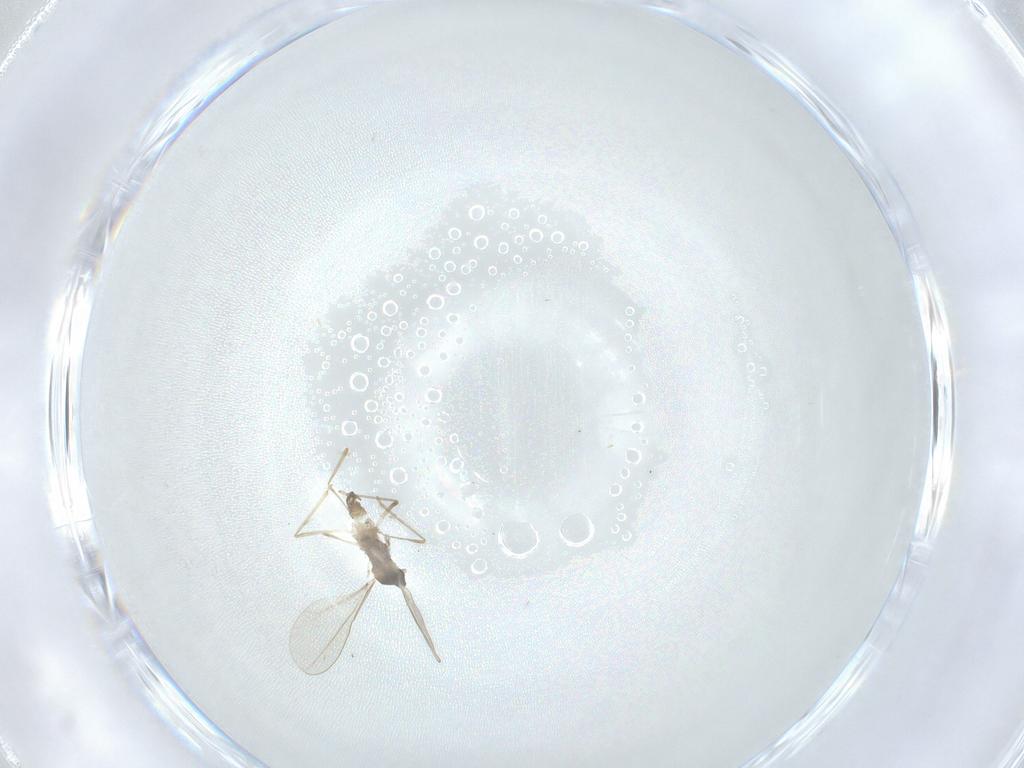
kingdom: Animalia
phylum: Arthropoda
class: Insecta
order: Diptera
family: Cecidomyiidae
